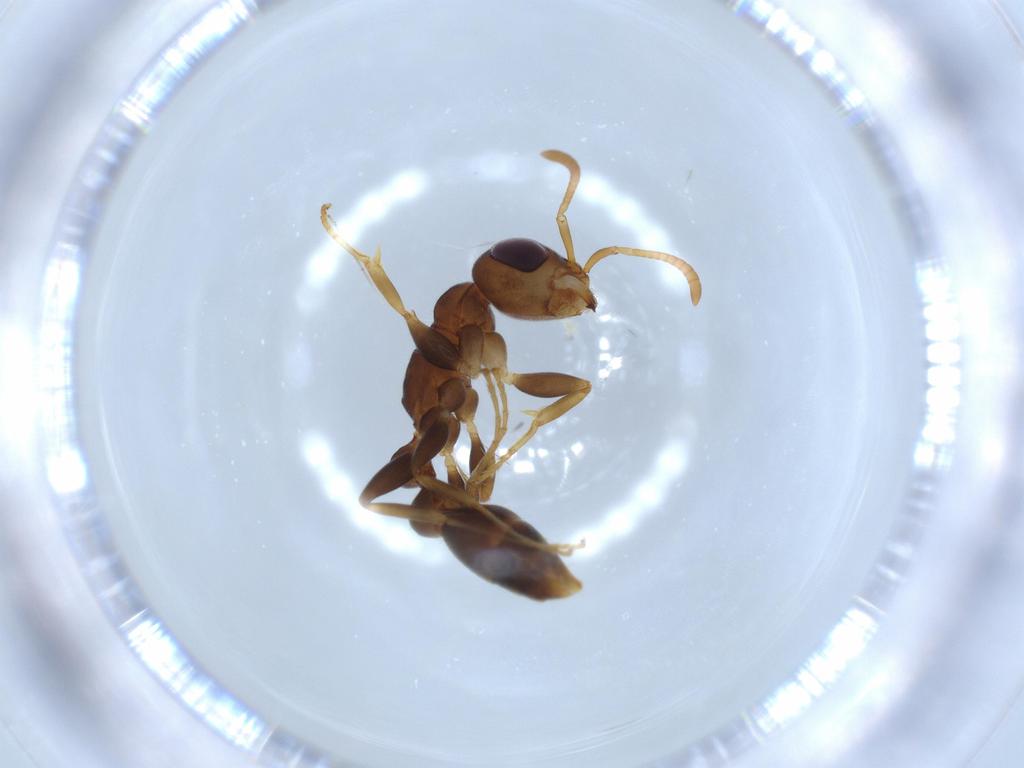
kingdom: Animalia
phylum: Arthropoda
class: Insecta
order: Hymenoptera
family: Formicidae
